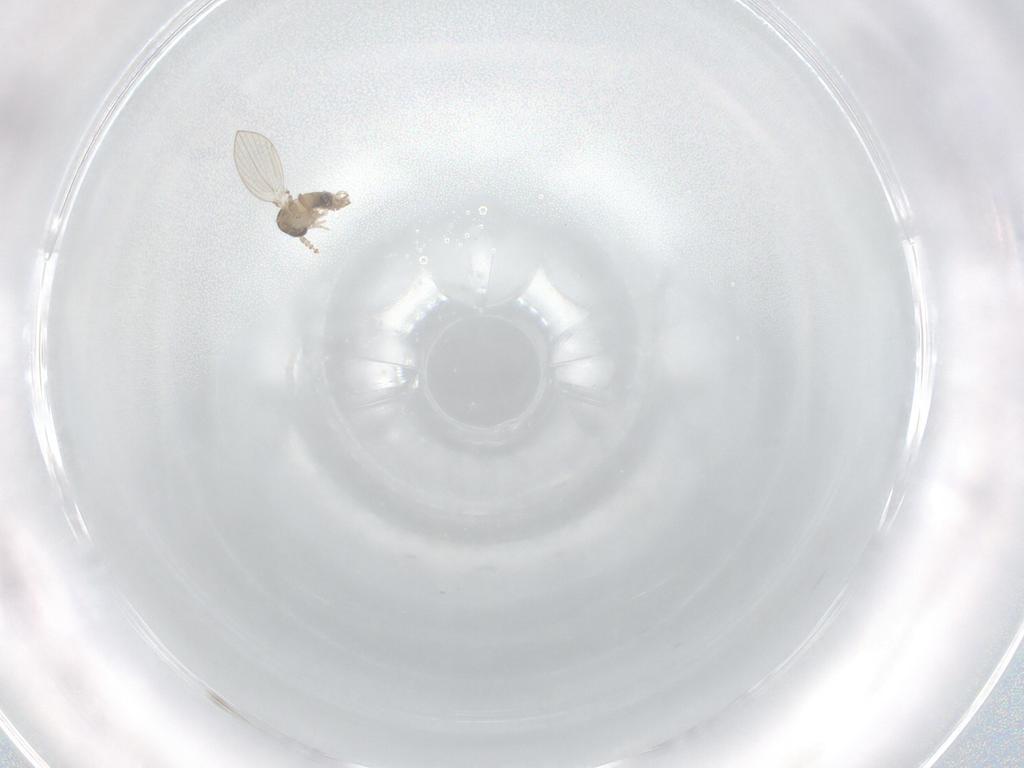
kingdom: Animalia
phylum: Arthropoda
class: Insecta
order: Diptera
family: Psychodidae
